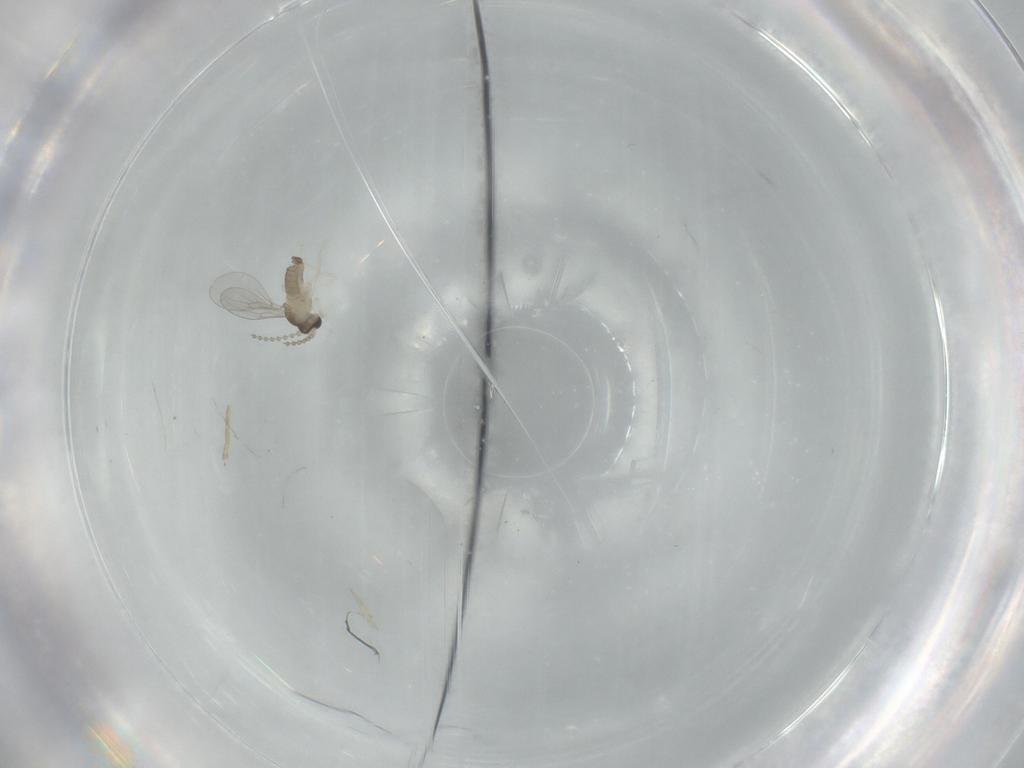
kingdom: Animalia
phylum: Arthropoda
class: Insecta
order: Diptera
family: Cecidomyiidae
